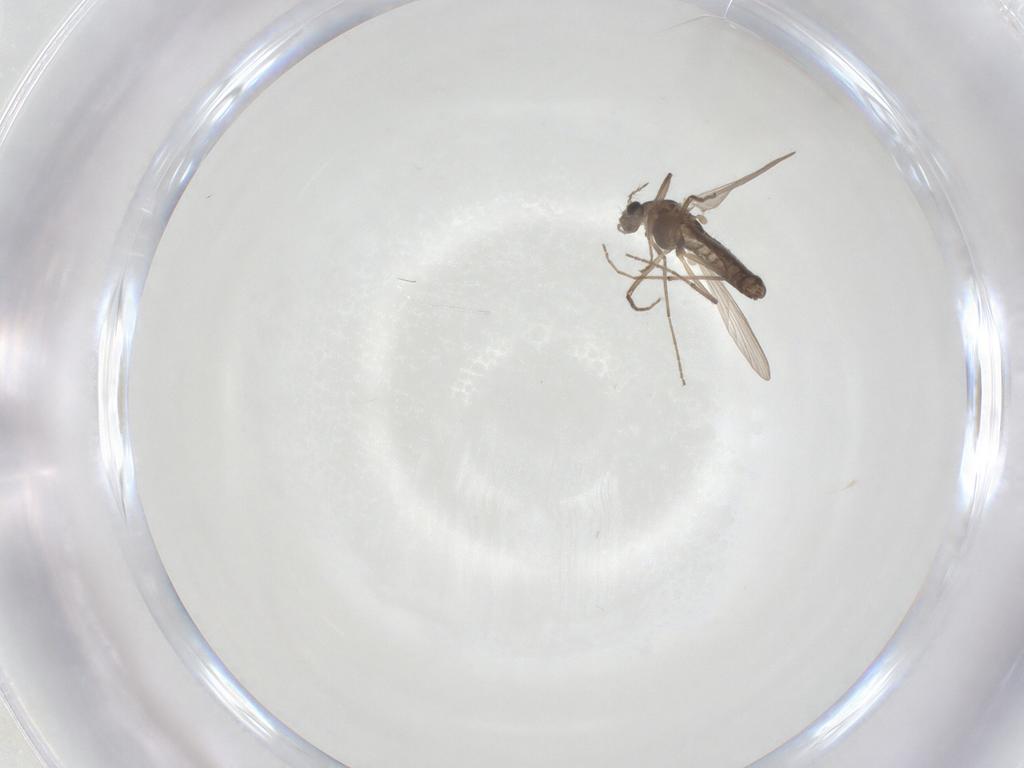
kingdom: Animalia
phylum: Arthropoda
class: Insecta
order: Diptera
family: Chironomidae
